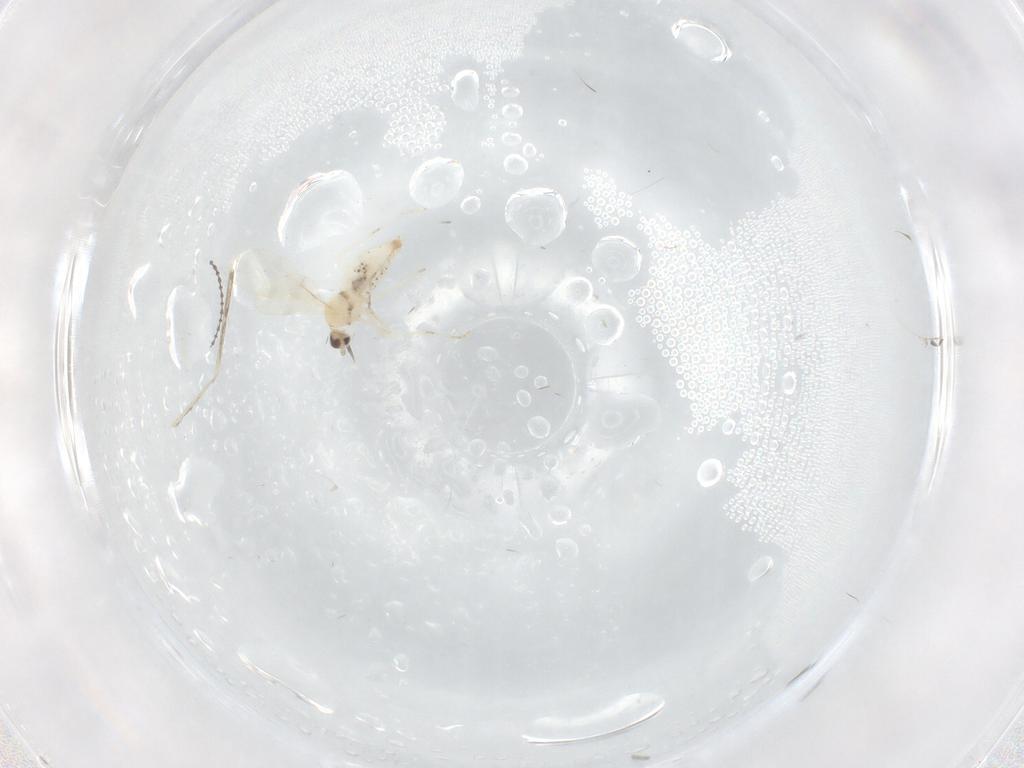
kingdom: Animalia
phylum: Arthropoda
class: Insecta
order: Diptera
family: Cecidomyiidae
